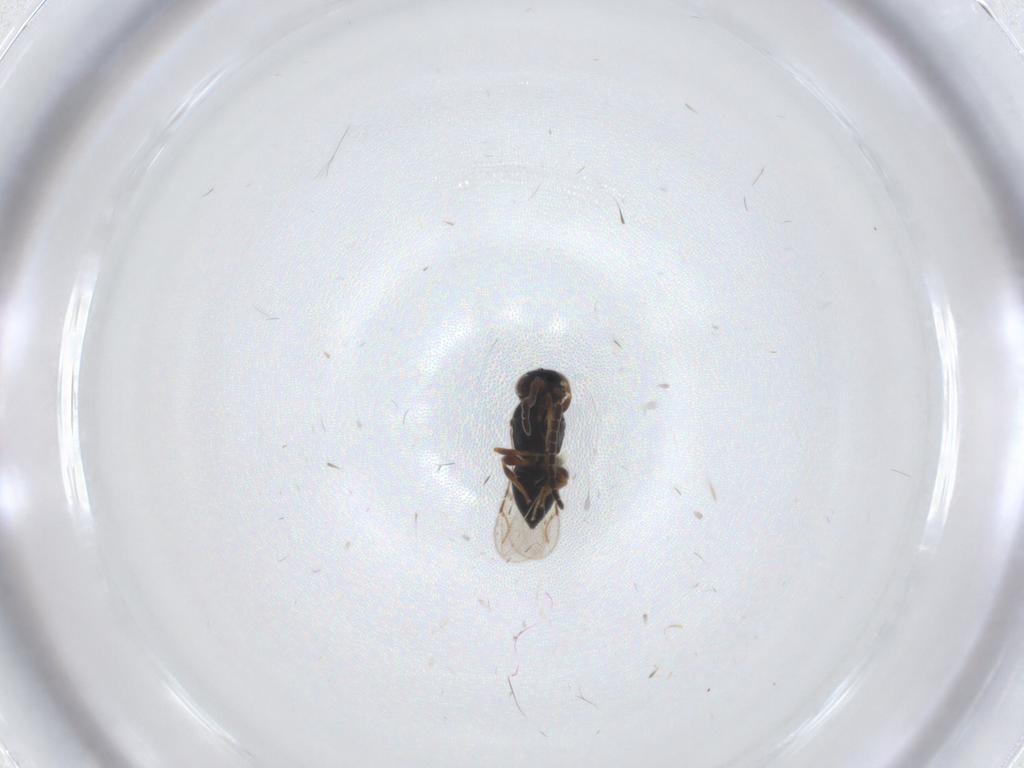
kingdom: Animalia
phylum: Arthropoda
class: Insecta
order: Hymenoptera
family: Ceraphronidae
